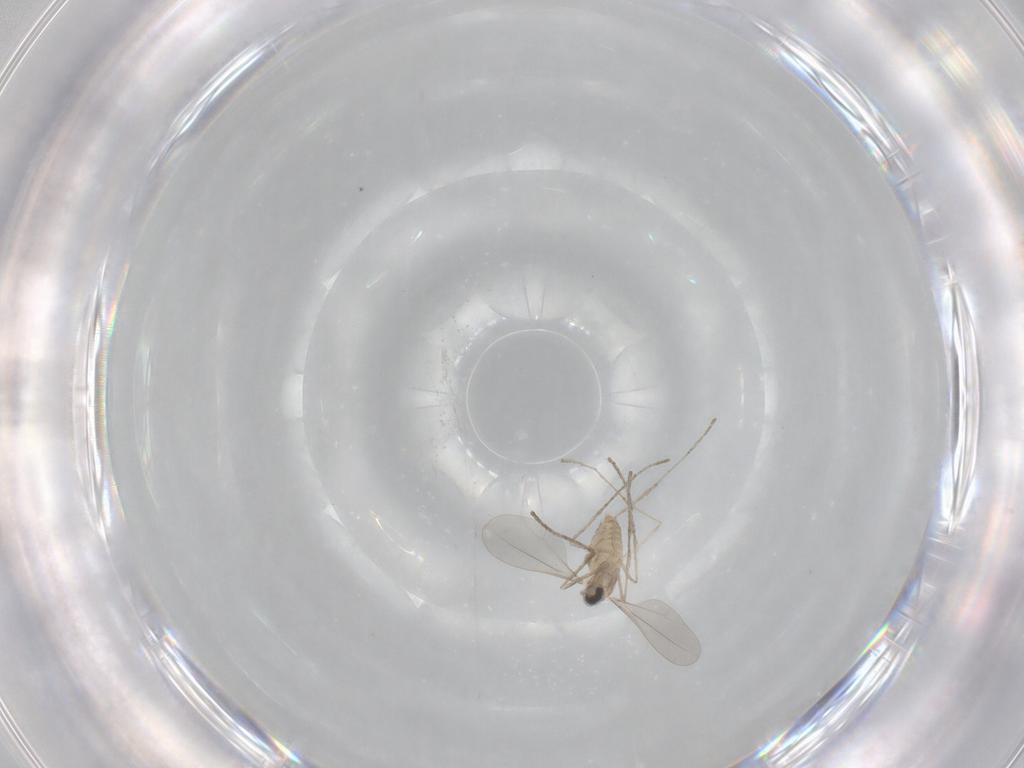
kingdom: Animalia
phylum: Arthropoda
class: Insecta
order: Diptera
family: Cecidomyiidae
